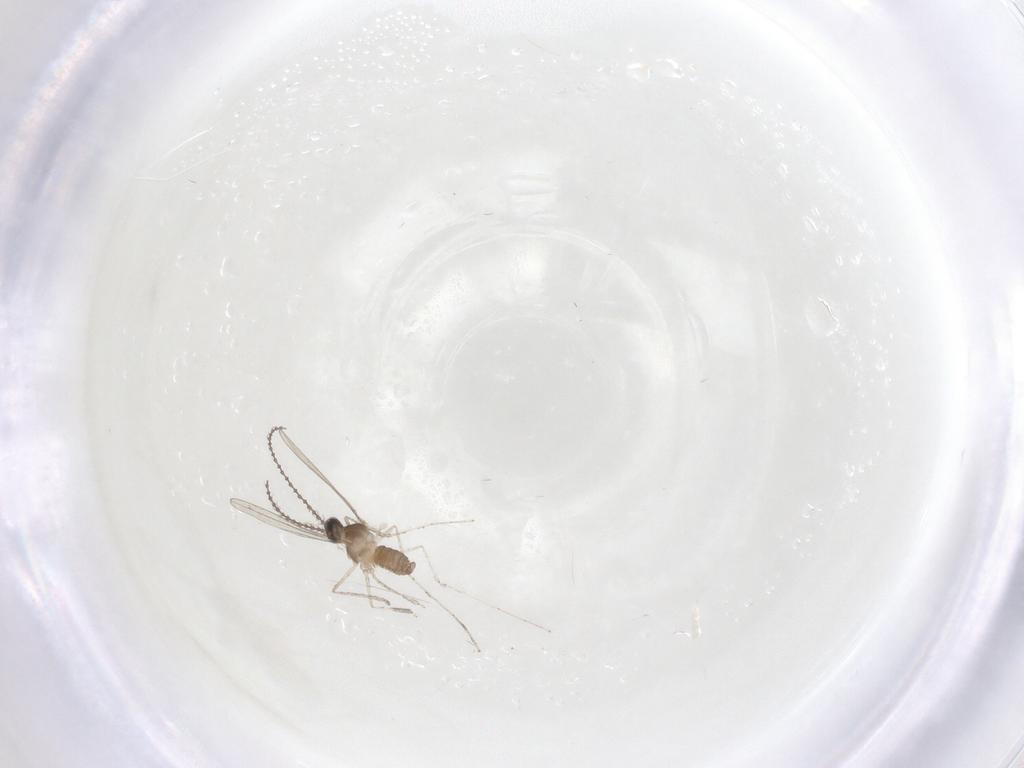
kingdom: Animalia
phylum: Arthropoda
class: Insecta
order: Diptera
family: Cecidomyiidae
